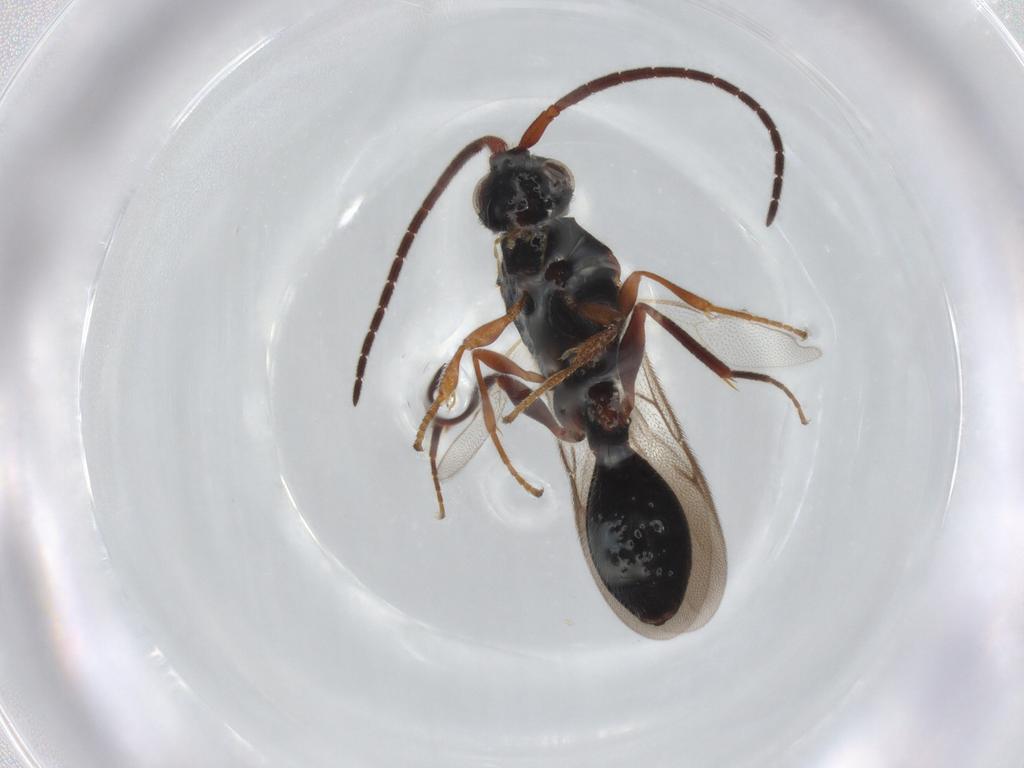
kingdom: Animalia
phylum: Arthropoda
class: Insecta
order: Hymenoptera
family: Diapriidae
